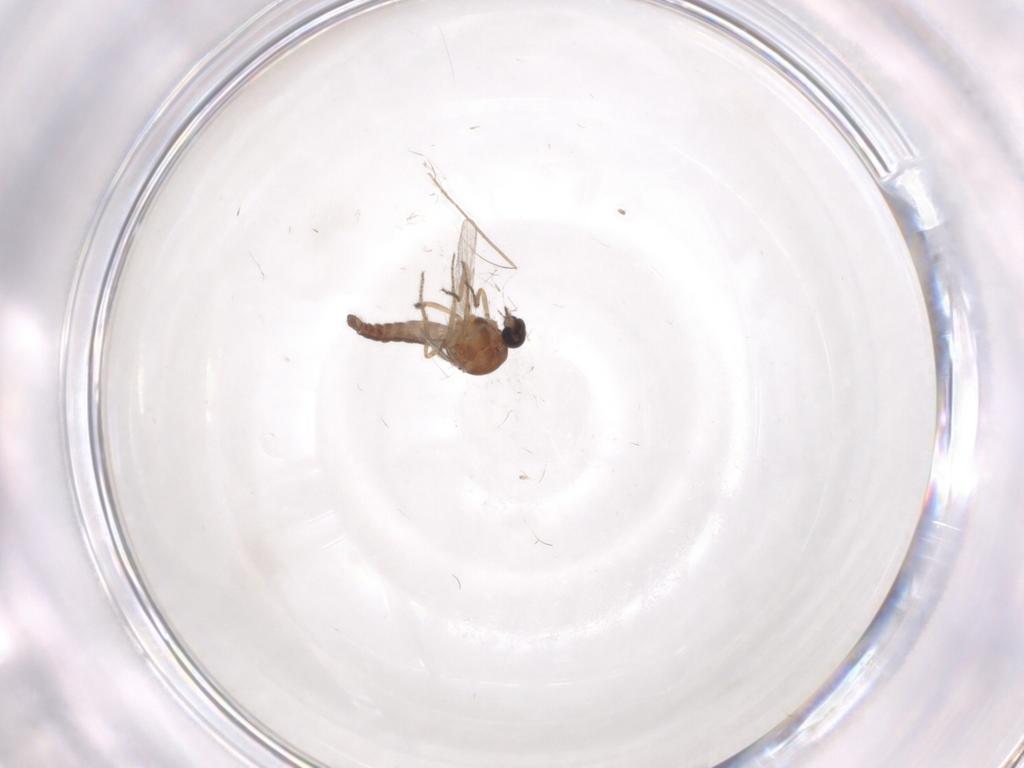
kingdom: Animalia
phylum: Arthropoda
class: Insecta
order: Diptera
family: Ceratopogonidae
